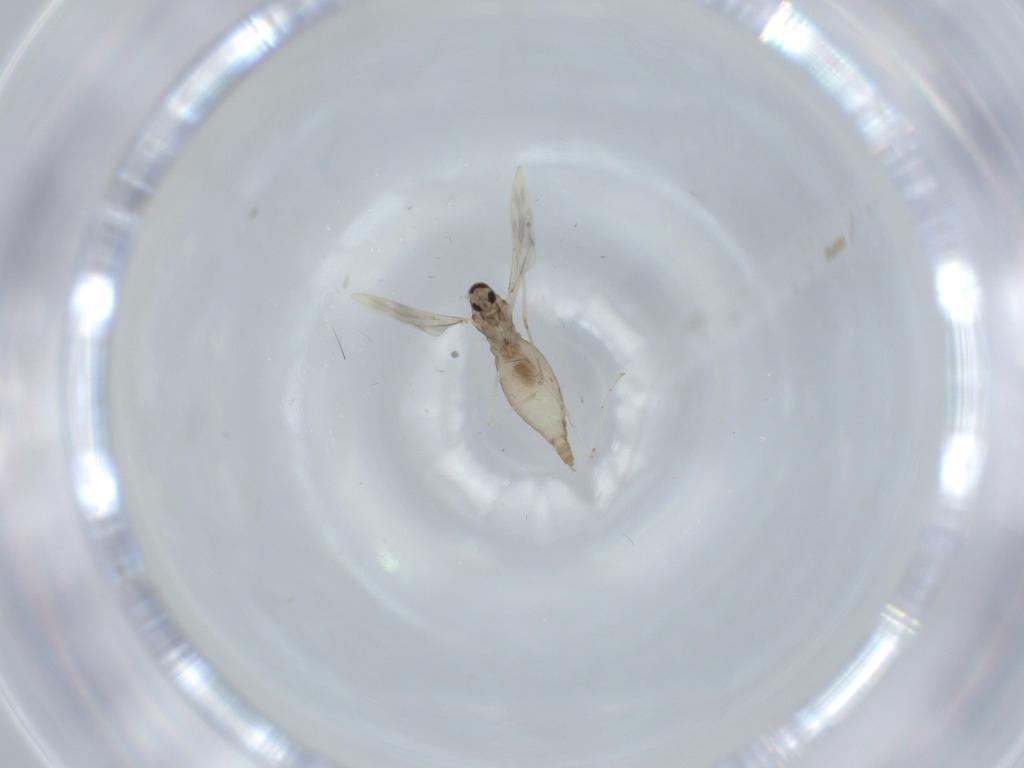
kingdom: Animalia
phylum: Arthropoda
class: Insecta
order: Diptera
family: Cecidomyiidae
